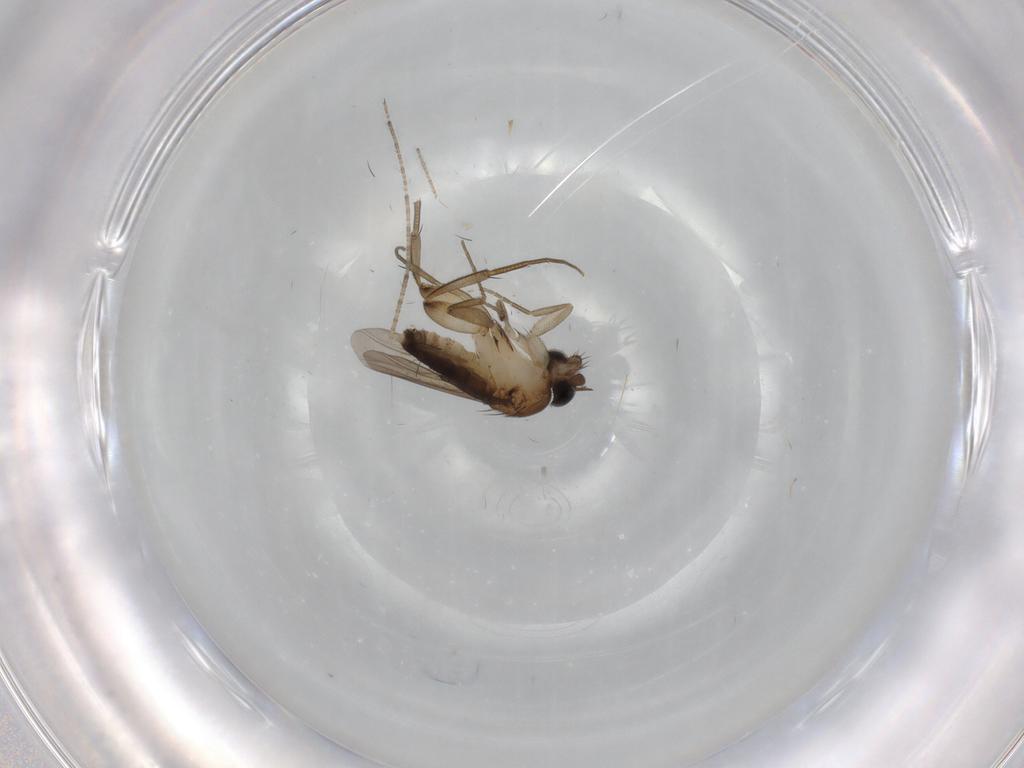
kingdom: Animalia
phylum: Arthropoda
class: Insecta
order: Diptera
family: Phoridae
